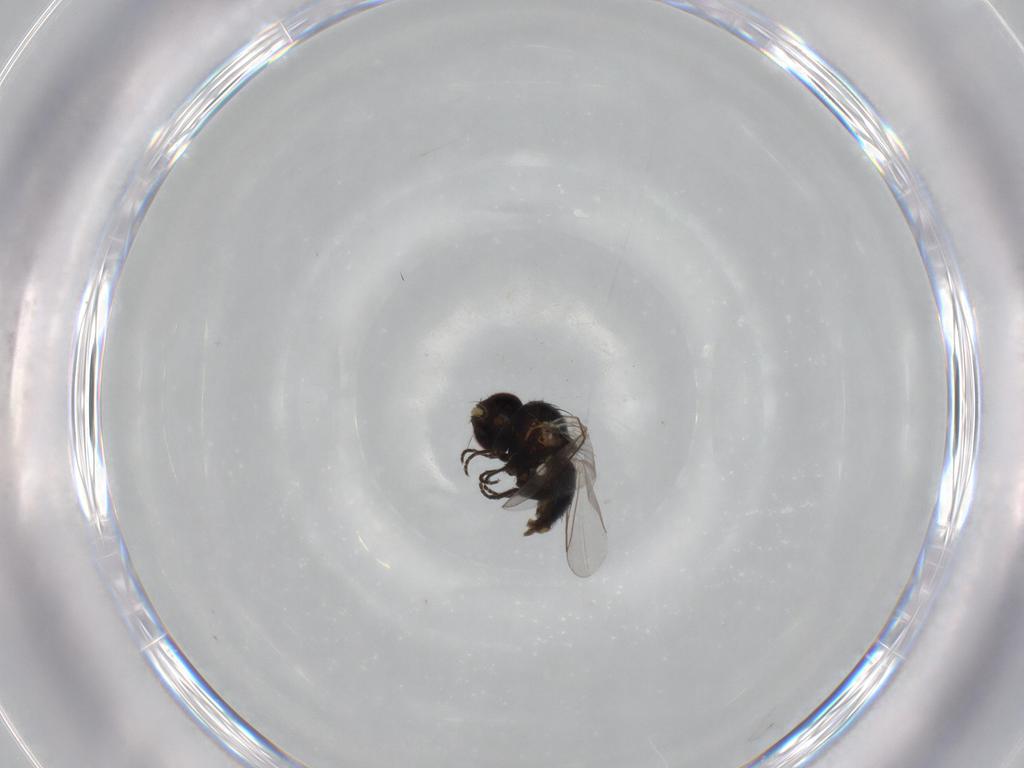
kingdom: Animalia
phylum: Arthropoda
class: Insecta
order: Diptera
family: Agromyzidae
